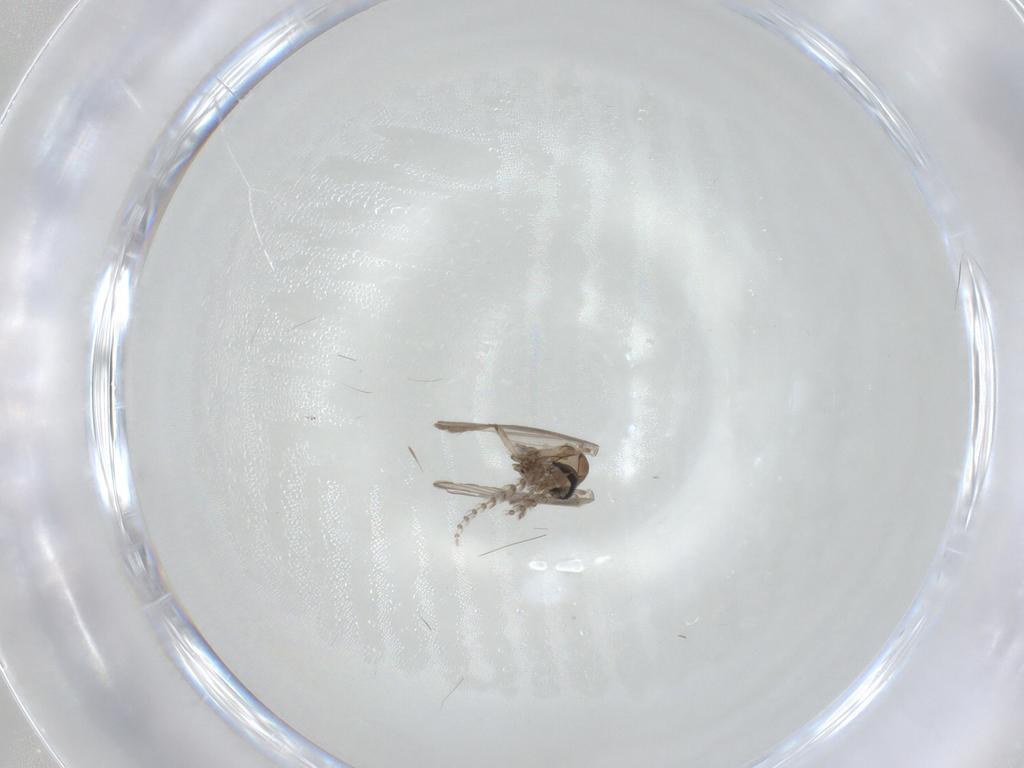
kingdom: Animalia
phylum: Arthropoda
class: Insecta
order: Diptera
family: Psychodidae
